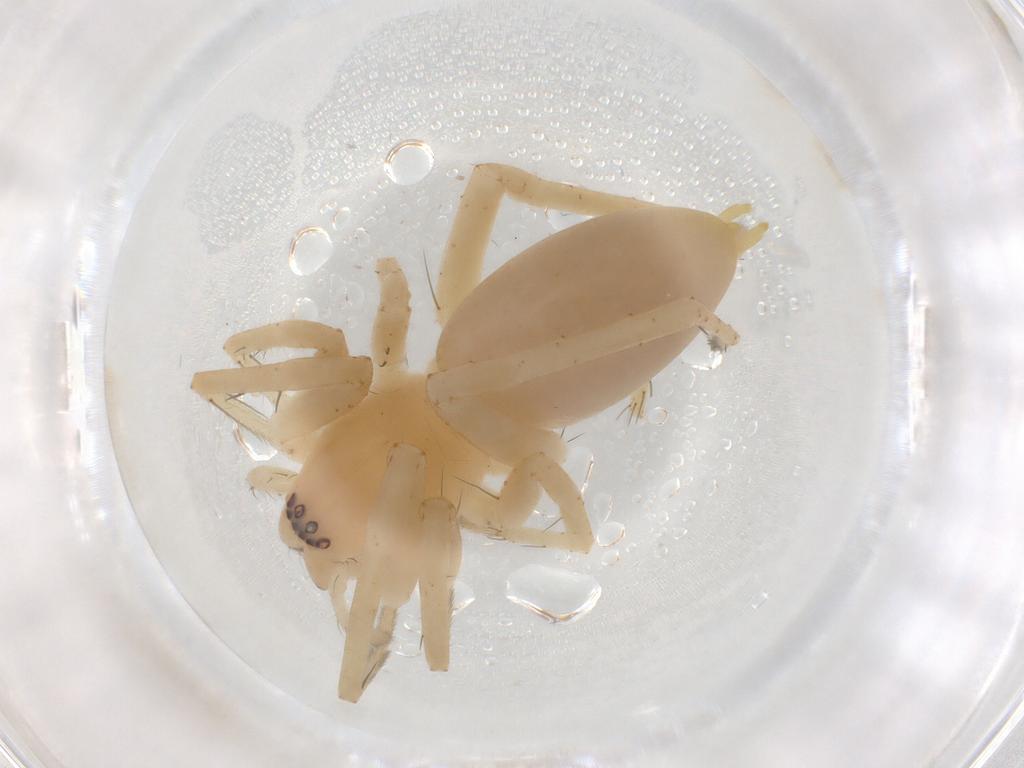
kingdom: Animalia
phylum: Arthropoda
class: Arachnida
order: Araneae
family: Anyphaenidae
